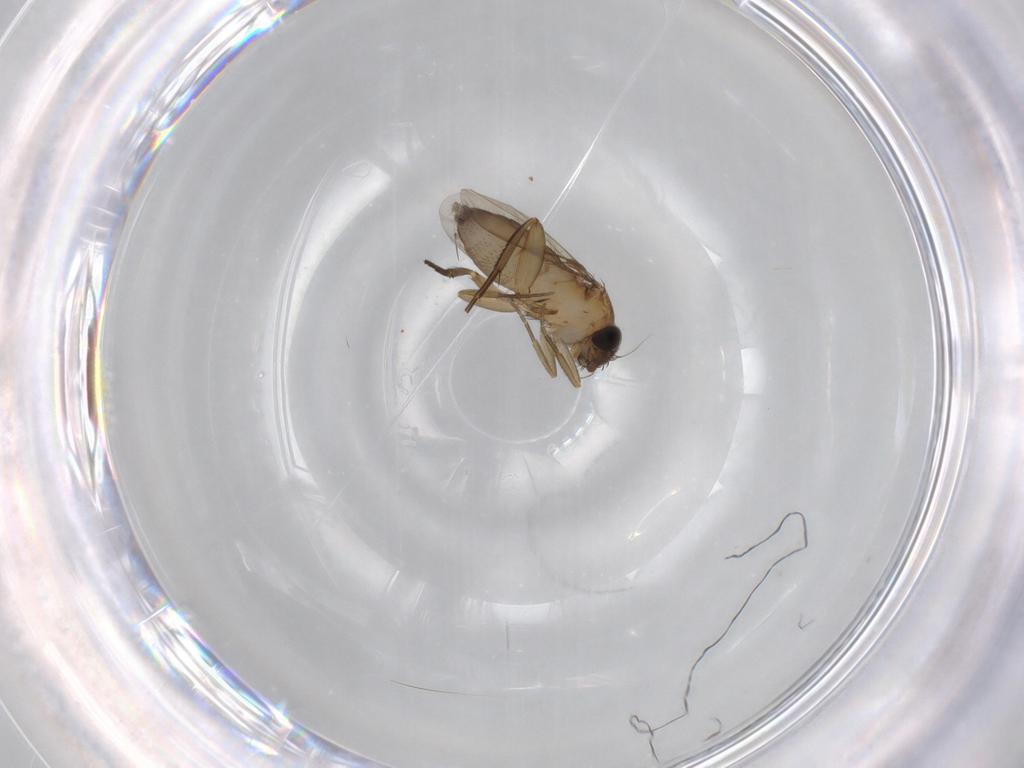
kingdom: Animalia
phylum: Arthropoda
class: Insecta
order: Diptera
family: Phoridae
